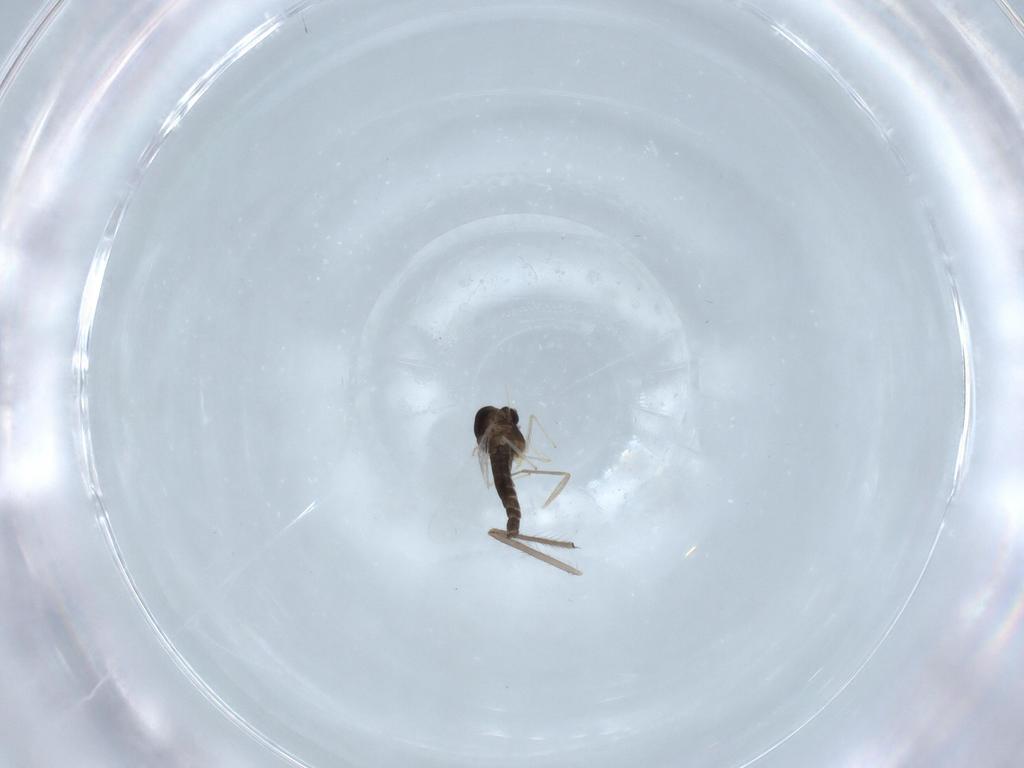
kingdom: Animalia
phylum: Arthropoda
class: Insecta
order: Diptera
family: Chironomidae
